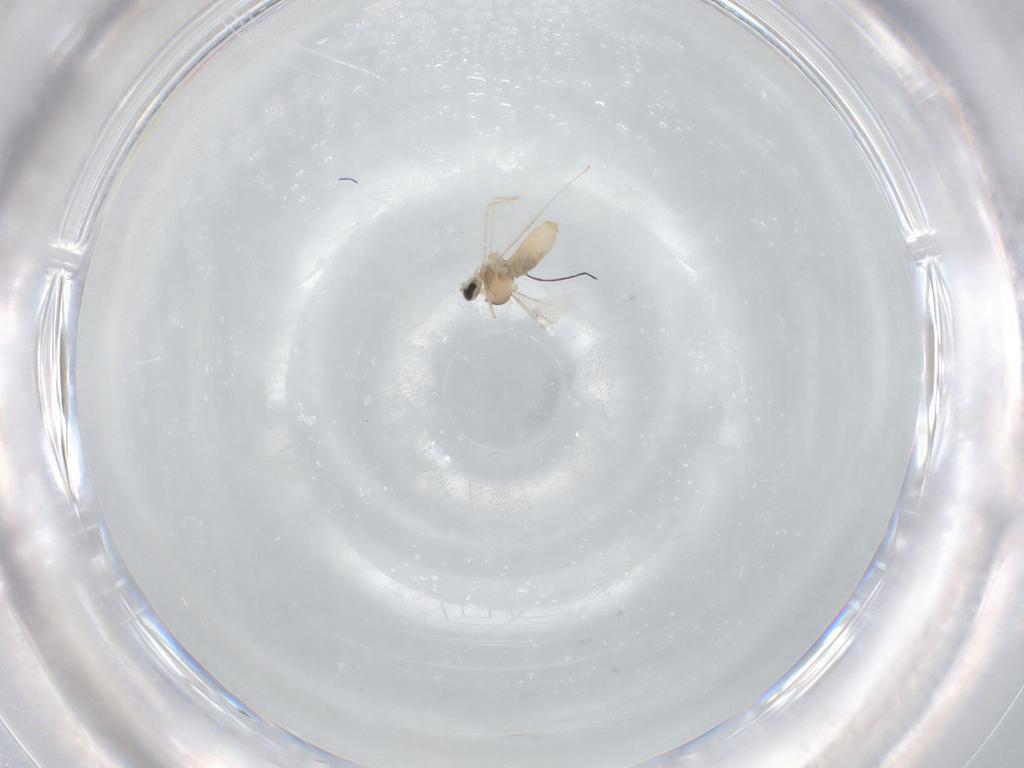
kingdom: Animalia
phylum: Arthropoda
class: Insecta
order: Diptera
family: Cecidomyiidae
